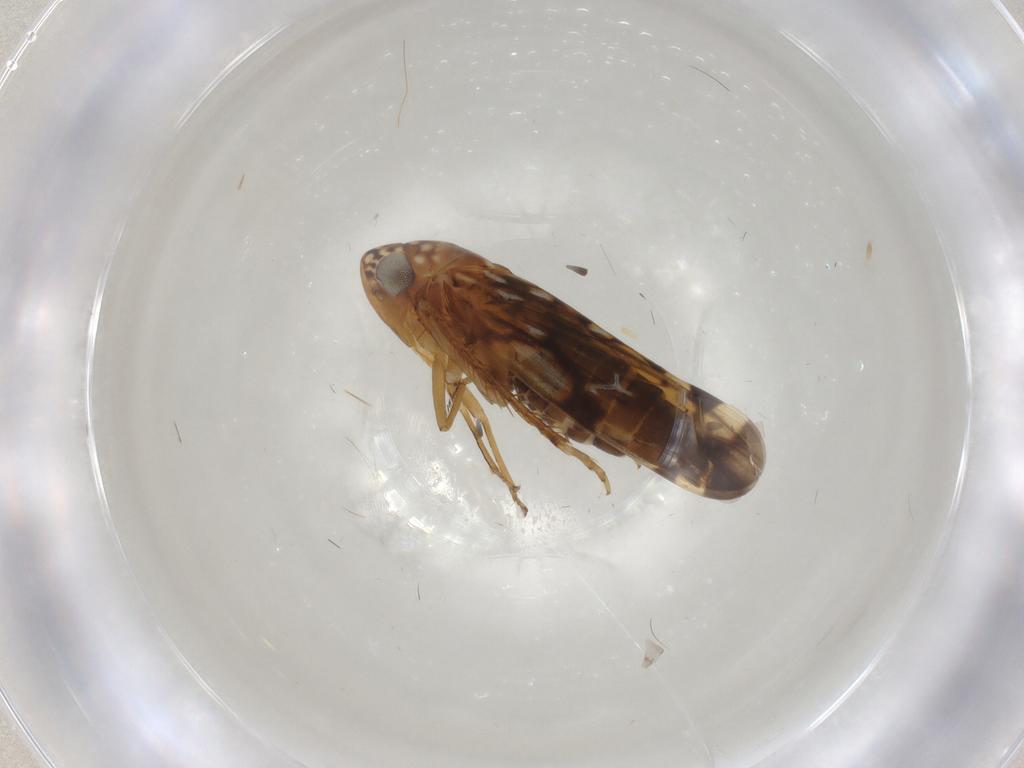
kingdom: Animalia
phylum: Arthropoda
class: Insecta
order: Hemiptera
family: Cicadellidae
